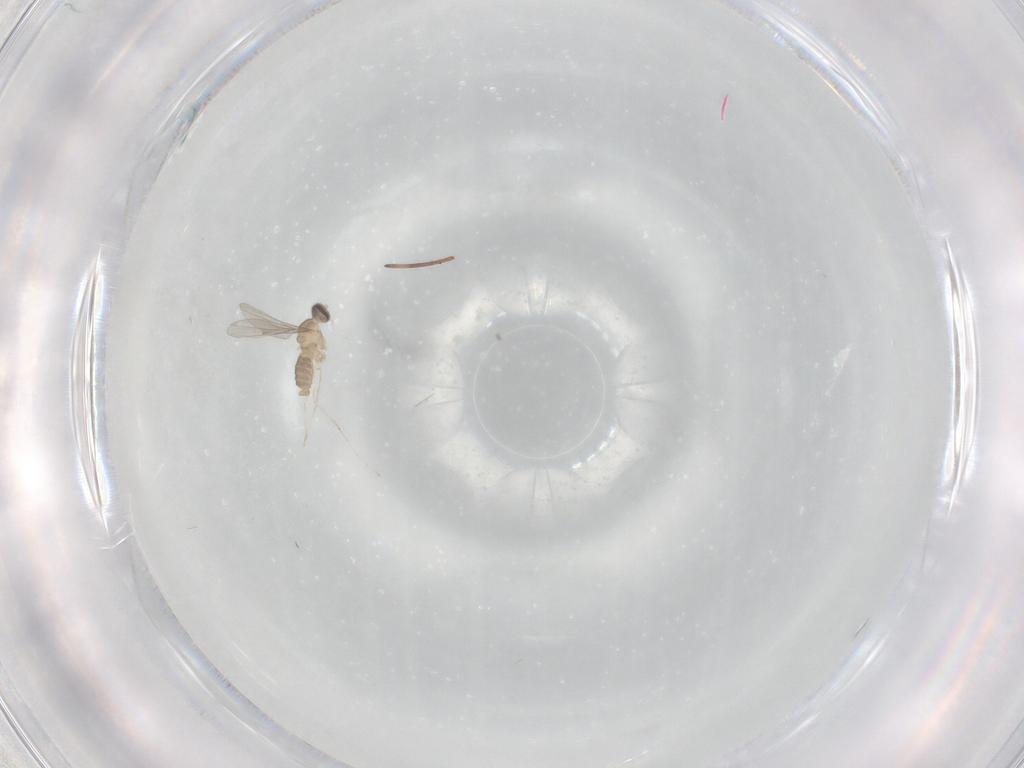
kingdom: Animalia
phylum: Arthropoda
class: Insecta
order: Diptera
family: Cecidomyiidae
